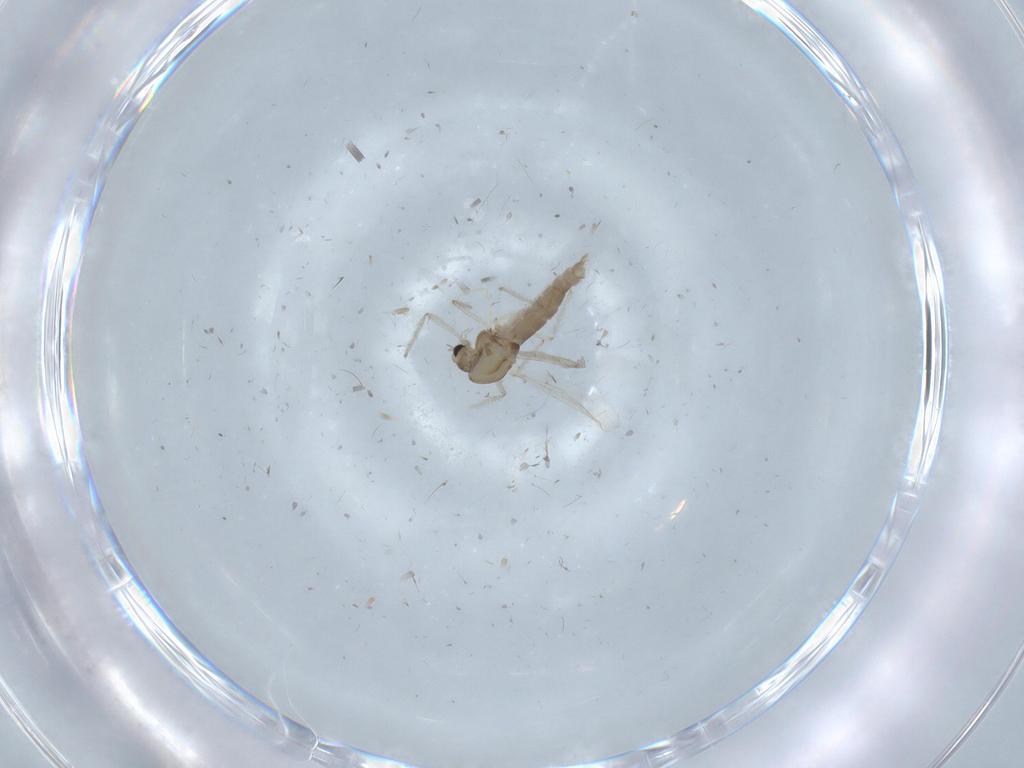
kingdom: Animalia
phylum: Arthropoda
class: Insecta
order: Diptera
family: Chironomidae
